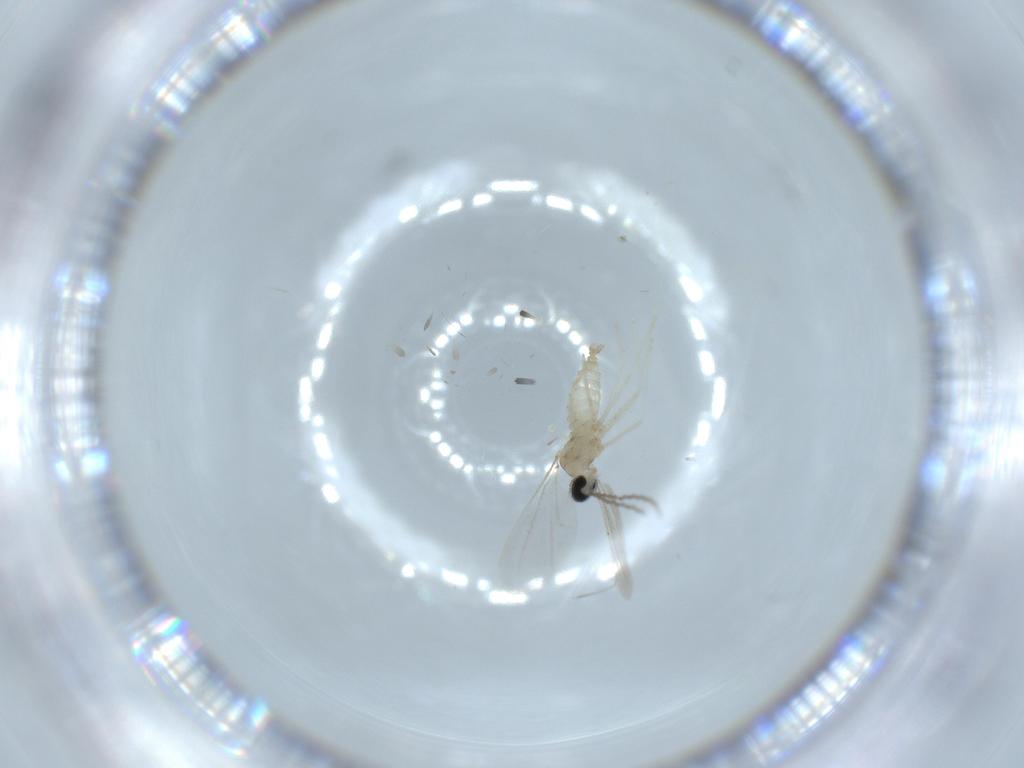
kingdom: Animalia
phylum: Arthropoda
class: Insecta
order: Diptera
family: Cecidomyiidae
